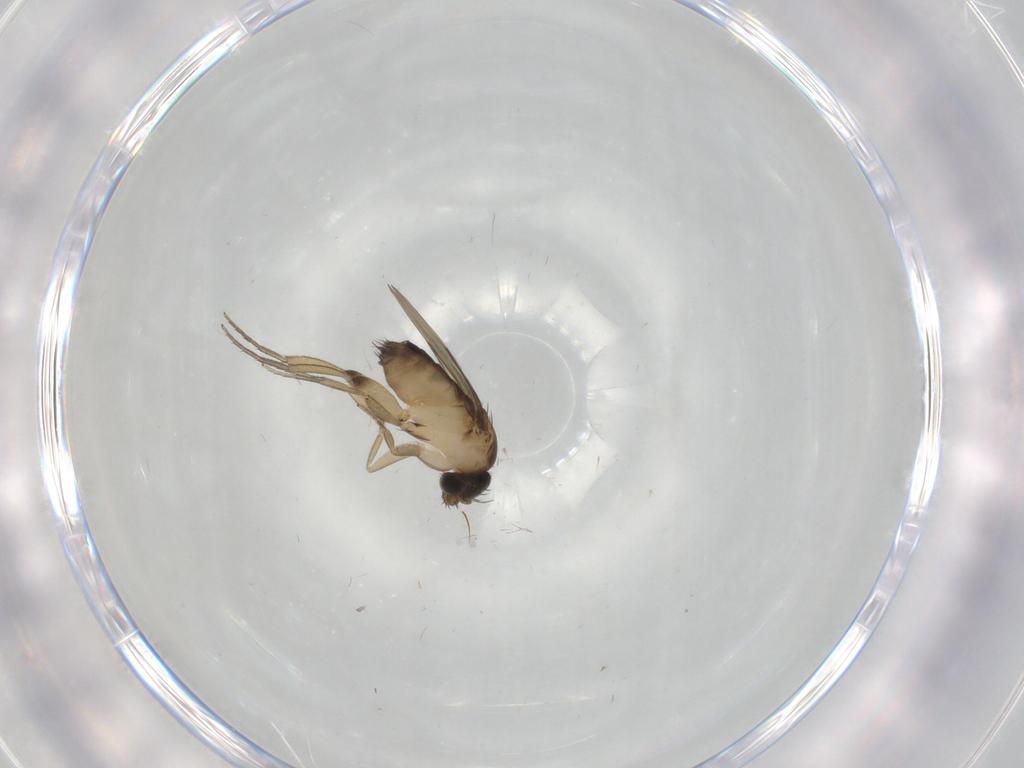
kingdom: Animalia
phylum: Arthropoda
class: Insecta
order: Diptera
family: Phoridae
